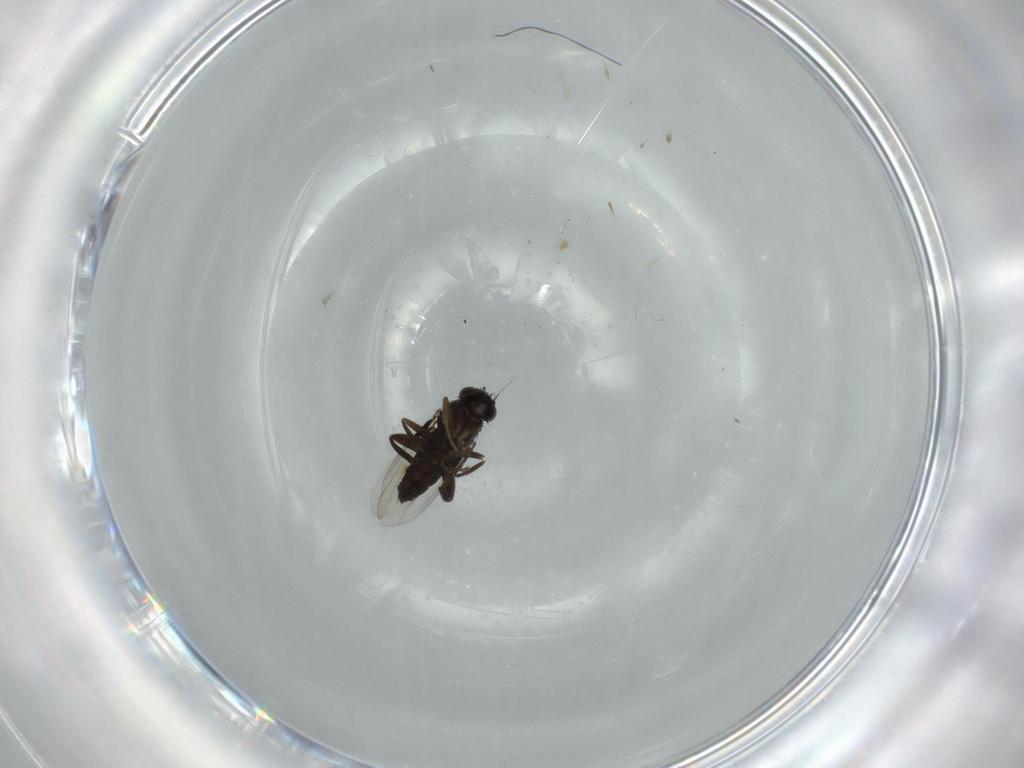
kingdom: Animalia
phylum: Arthropoda
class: Insecta
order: Diptera
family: Phoridae
